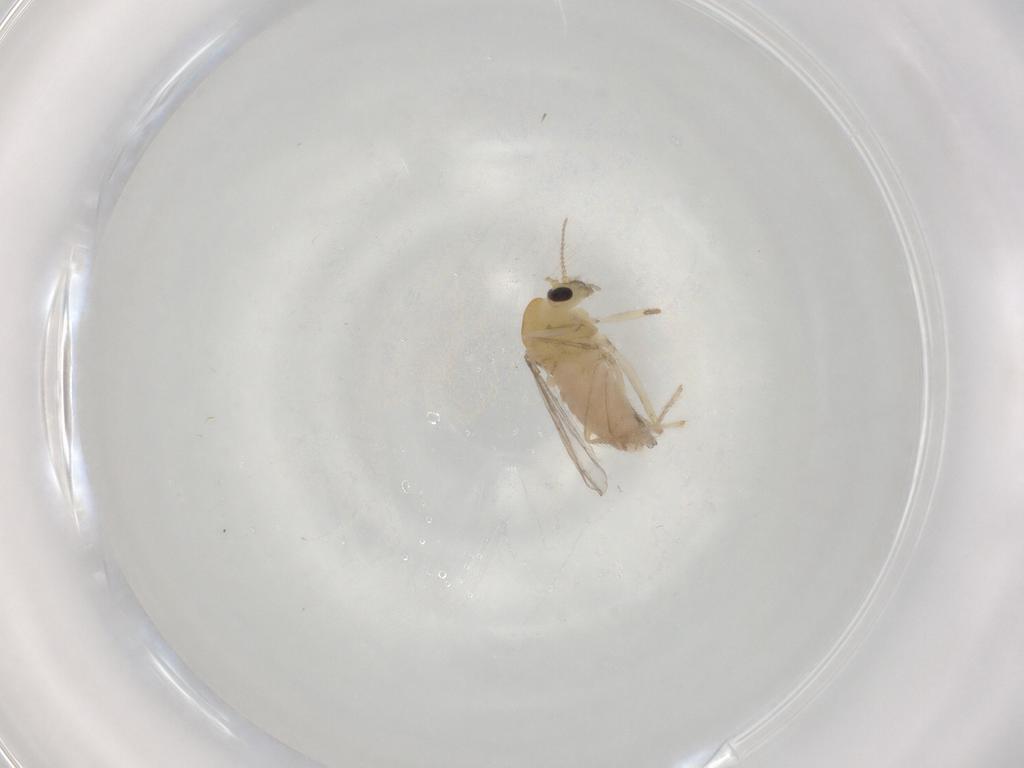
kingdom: Animalia
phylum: Arthropoda
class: Insecta
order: Diptera
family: Chironomidae
